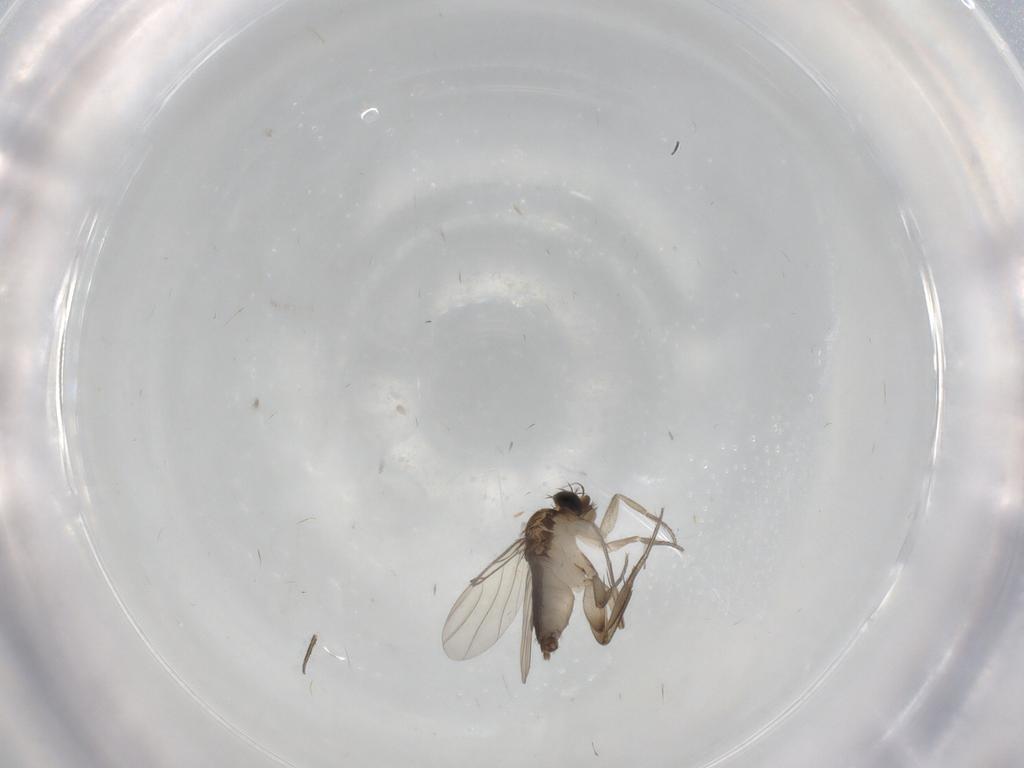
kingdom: Animalia
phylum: Arthropoda
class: Insecta
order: Diptera
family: Cecidomyiidae
